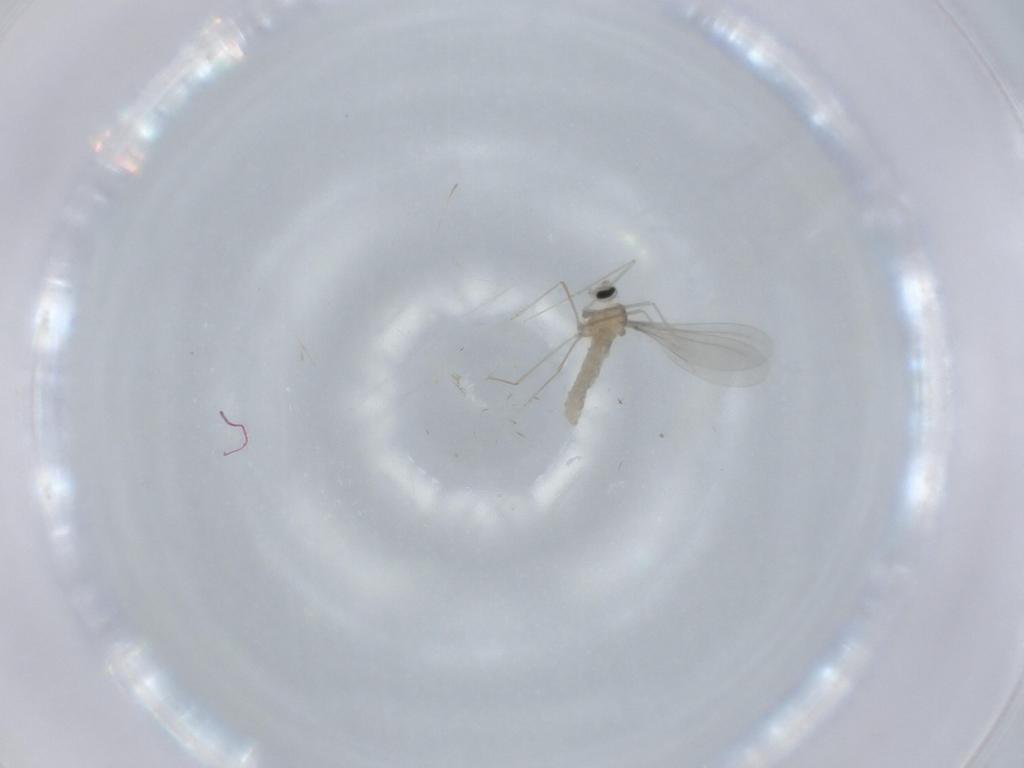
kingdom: Animalia
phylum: Arthropoda
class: Insecta
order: Diptera
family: Cecidomyiidae
